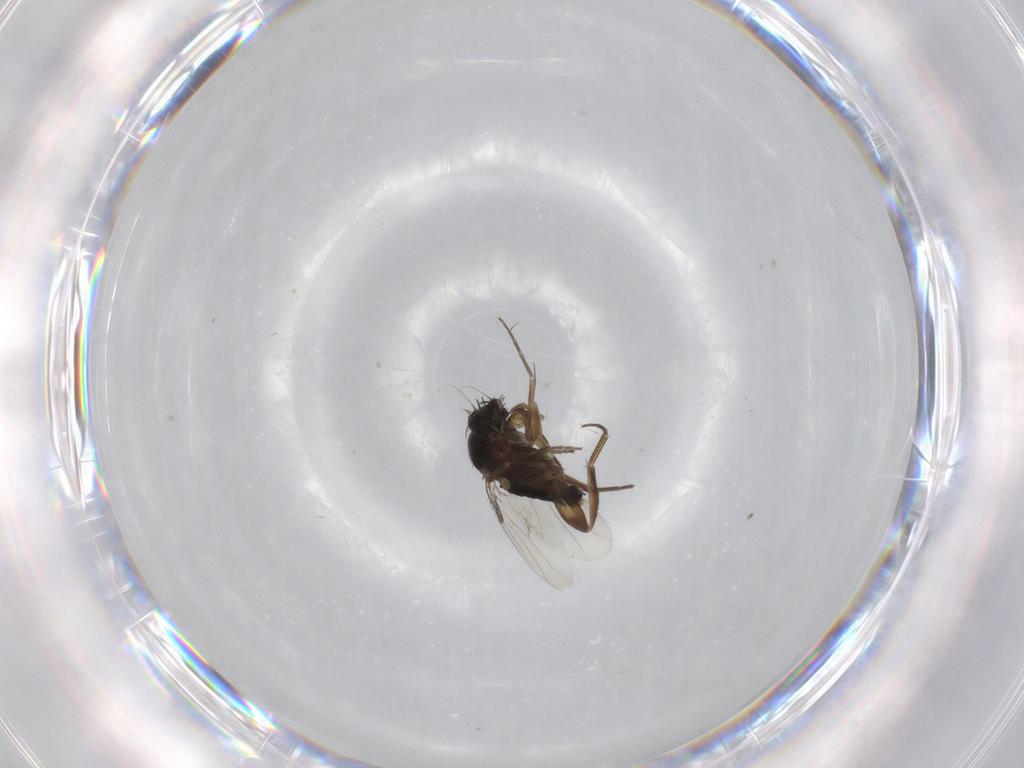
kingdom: Animalia
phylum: Arthropoda
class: Insecta
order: Diptera
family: Phoridae
